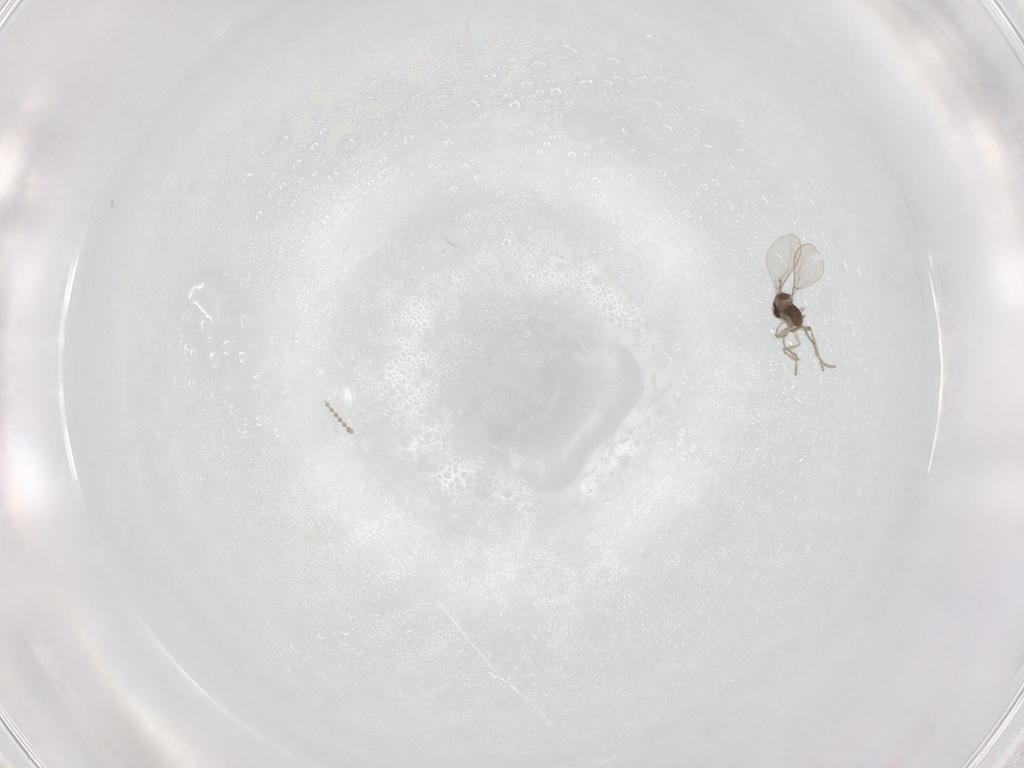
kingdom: Animalia
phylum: Arthropoda
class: Insecta
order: Diptera
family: Cecidomyiidae
